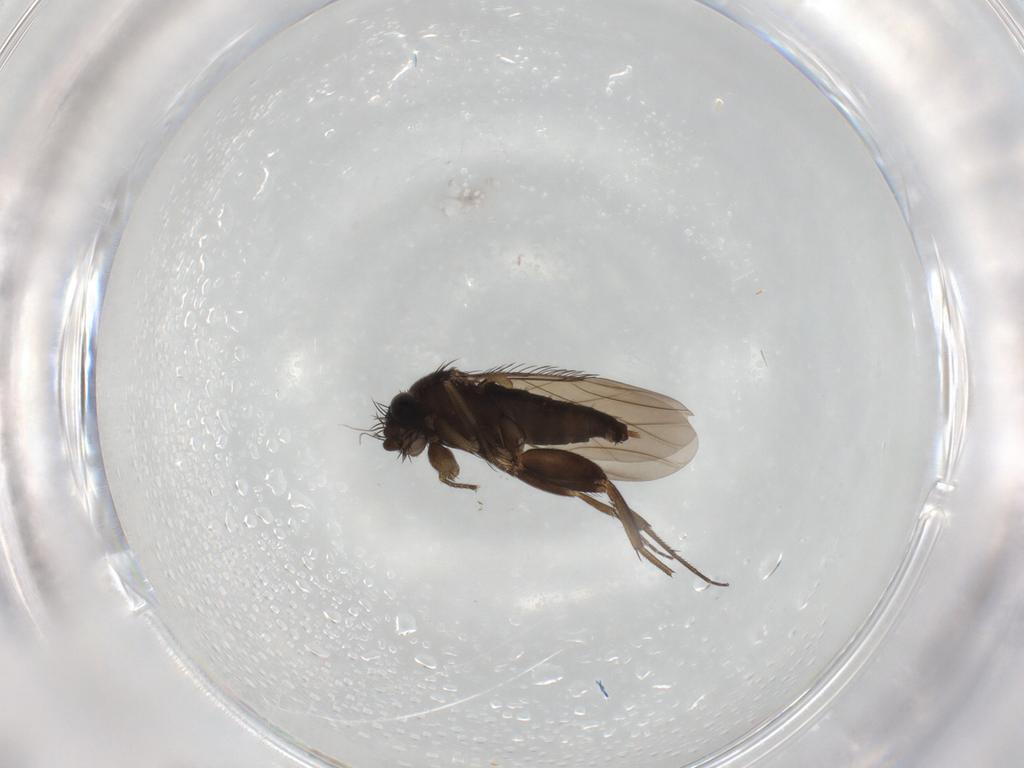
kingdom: Animalia
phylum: Arthropoda
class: Insecta
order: Diptera
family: Phoridae
